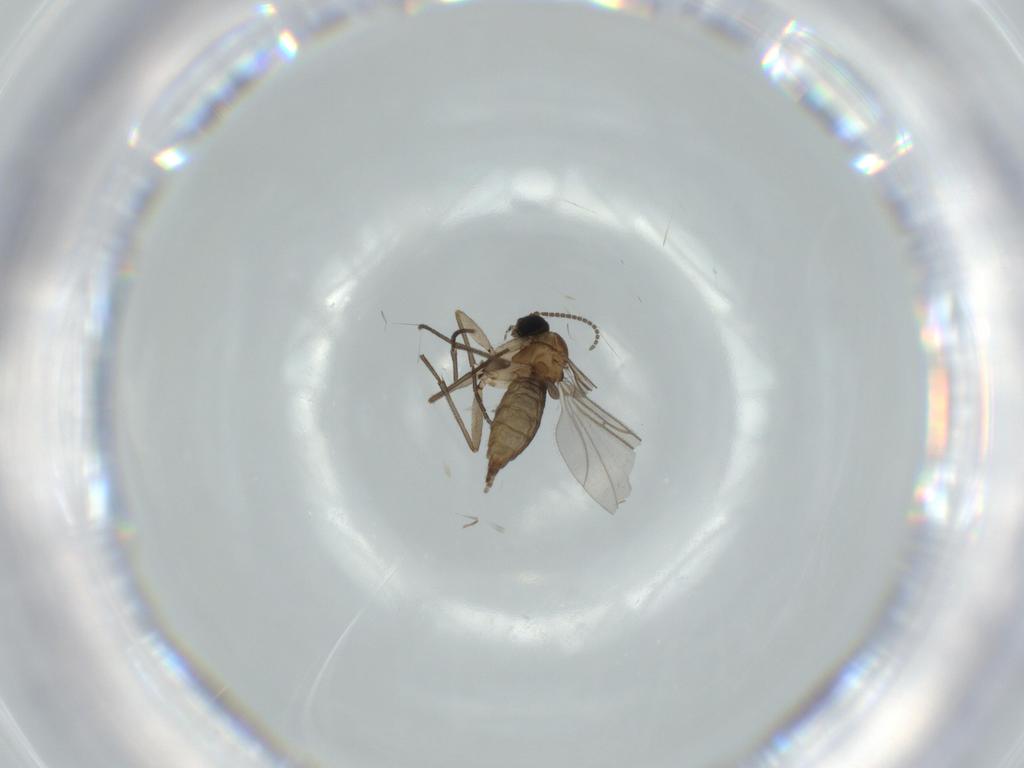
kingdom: Animalia
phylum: Arthropoda
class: Insecta
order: Diptera
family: Sciaridae
